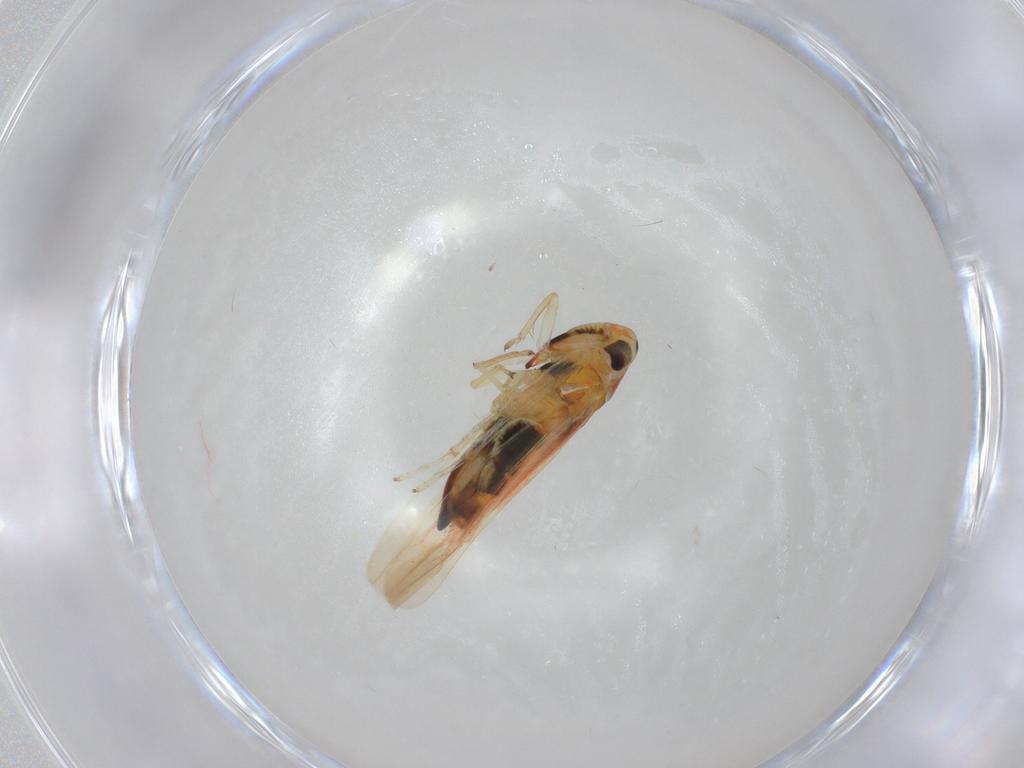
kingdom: Animalia
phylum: Arthropoda
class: Insecta
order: Hemiptera
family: Cicadellidae
